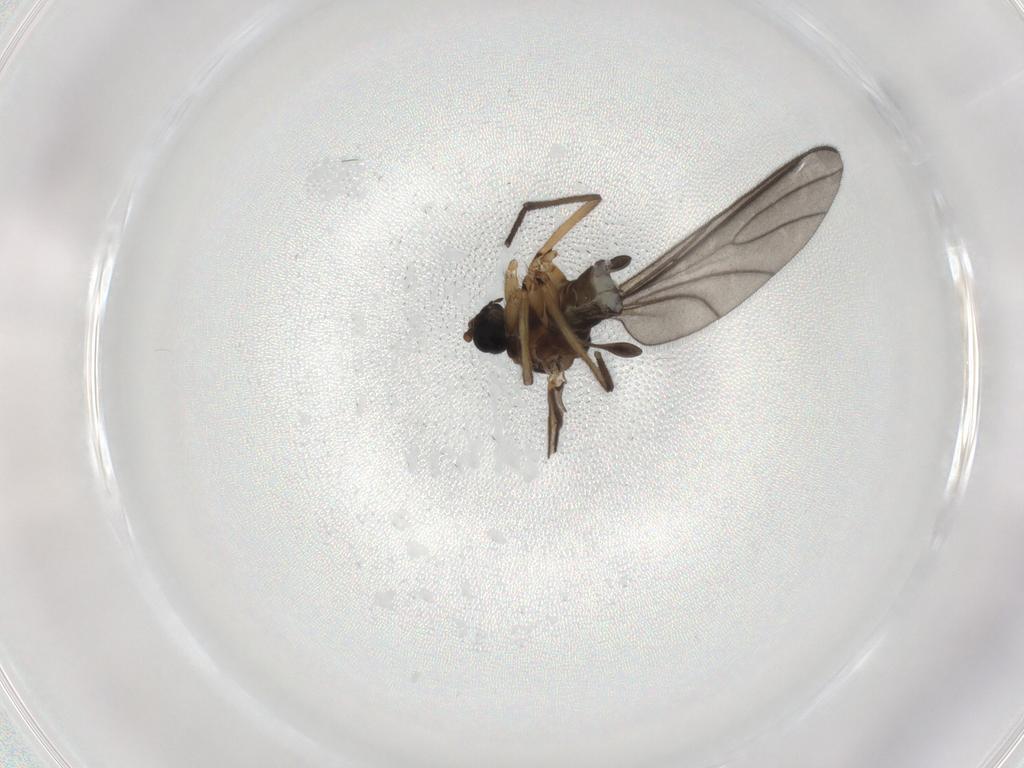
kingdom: Animalia
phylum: Arthropoda
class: Insecta
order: Diptera
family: Sciaridae
